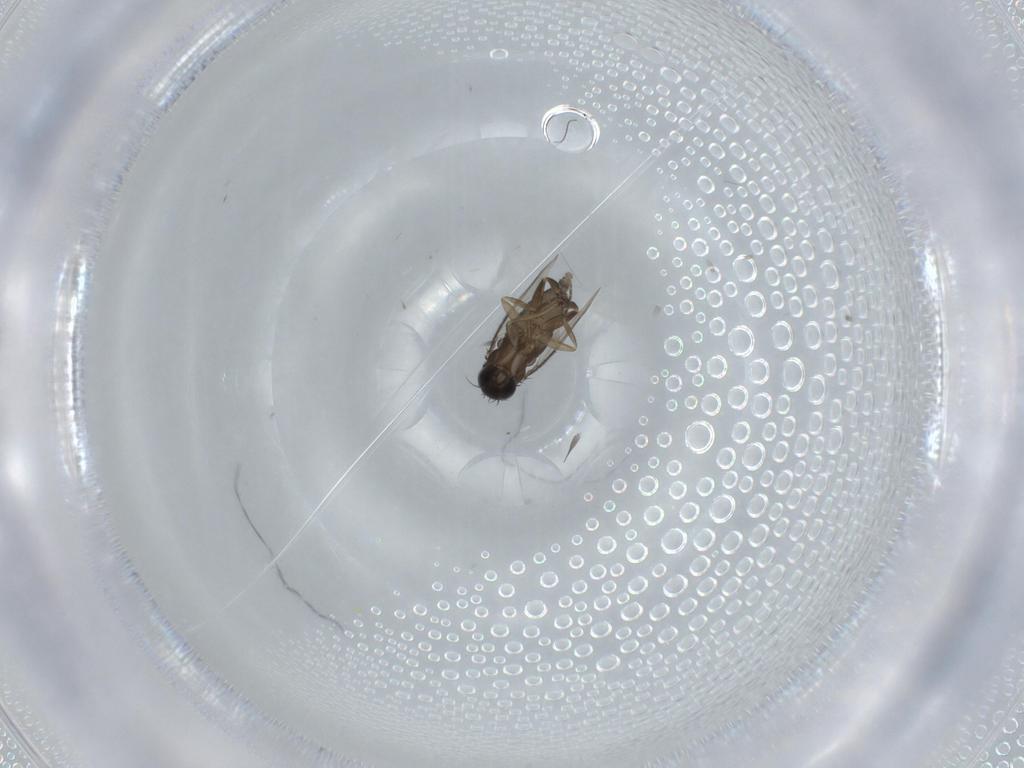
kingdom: Animalia
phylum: Arthropoda
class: Insecta
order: Diptera
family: Phoridae
